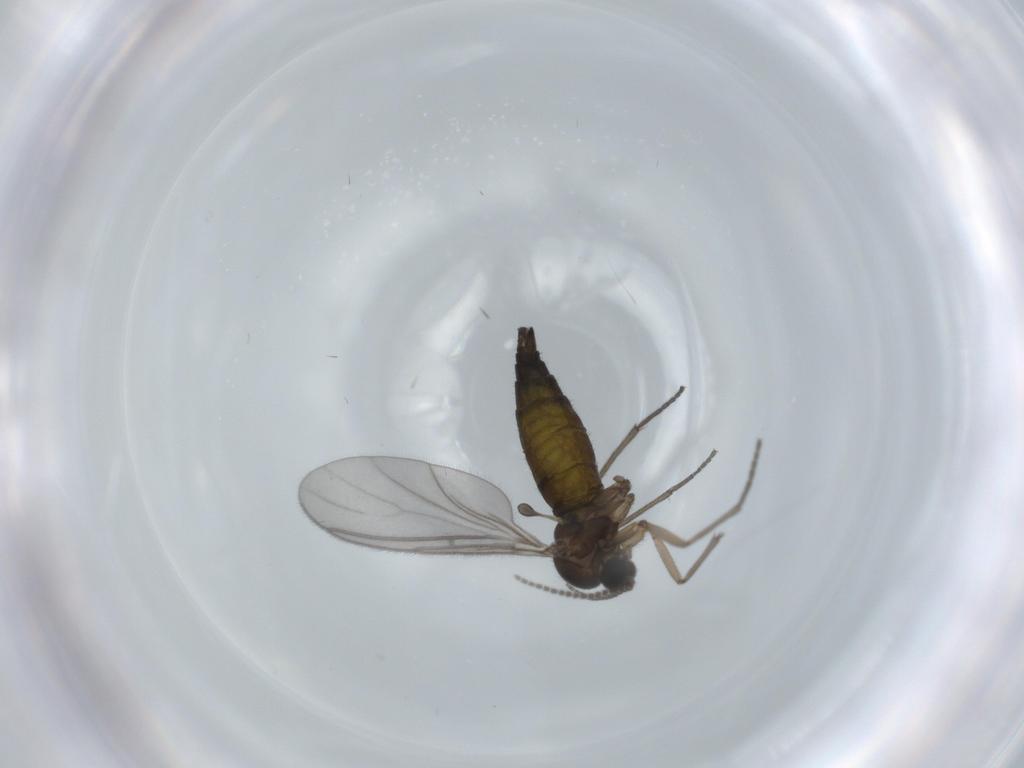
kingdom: Animalia
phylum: Arthropoda
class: Insecta
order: Diptera
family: Sciaridae
